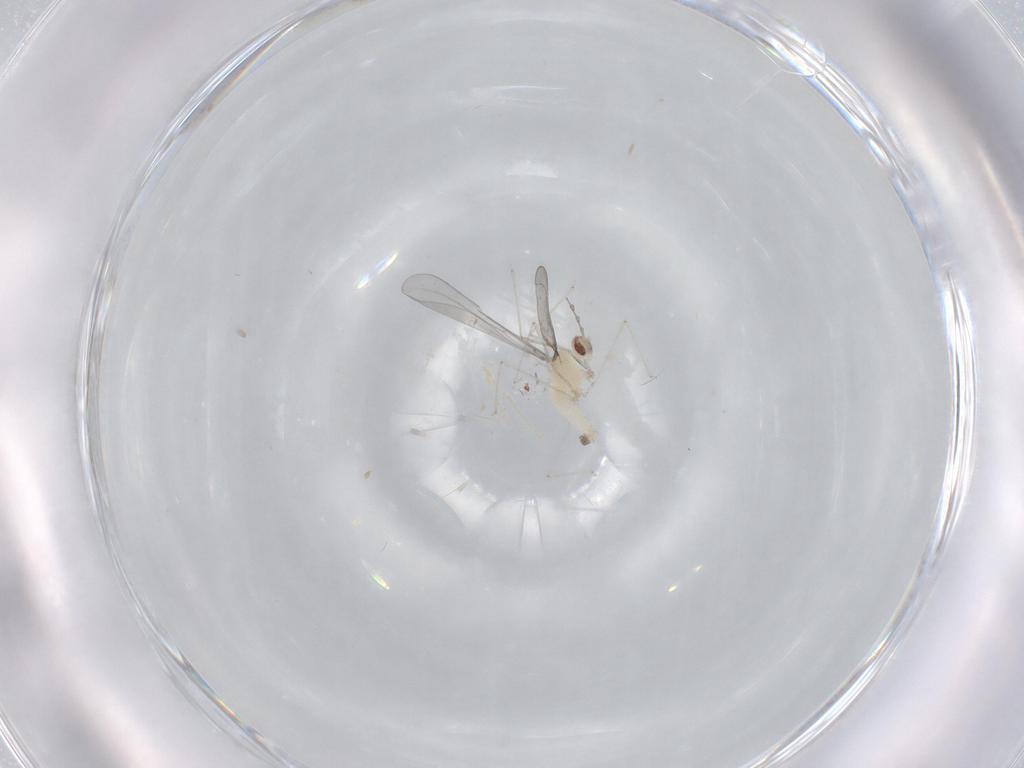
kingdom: Animalia
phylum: Arthropoda
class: Insecta
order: Diptera
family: Cecidomyiidae
